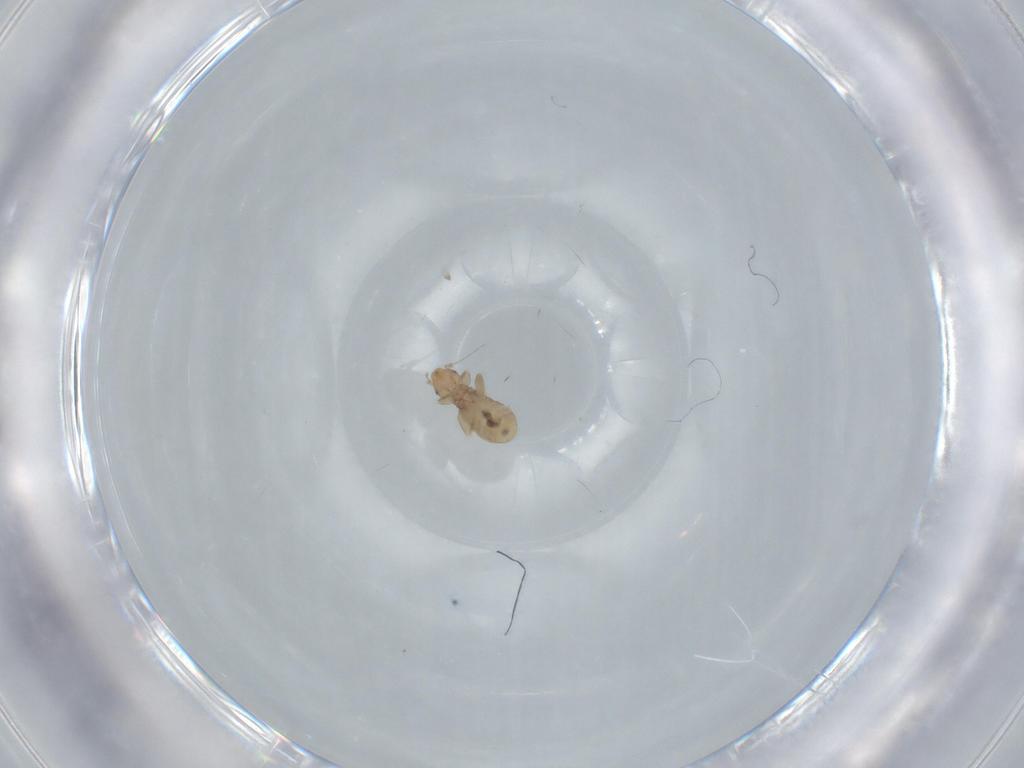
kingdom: Animalia
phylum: Arthropoda
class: Insecta
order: Psocodea
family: Liposcelididae
